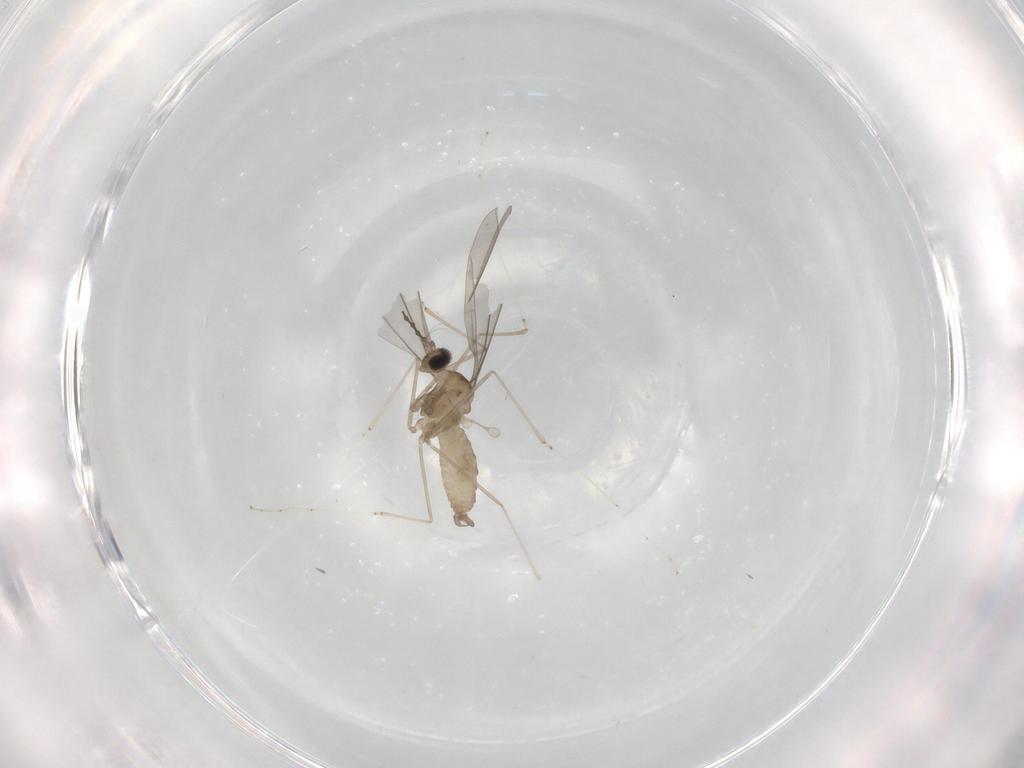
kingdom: Animalia
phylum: Arthropoda
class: Insecta
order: Diptera
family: Cecidomyiidae
